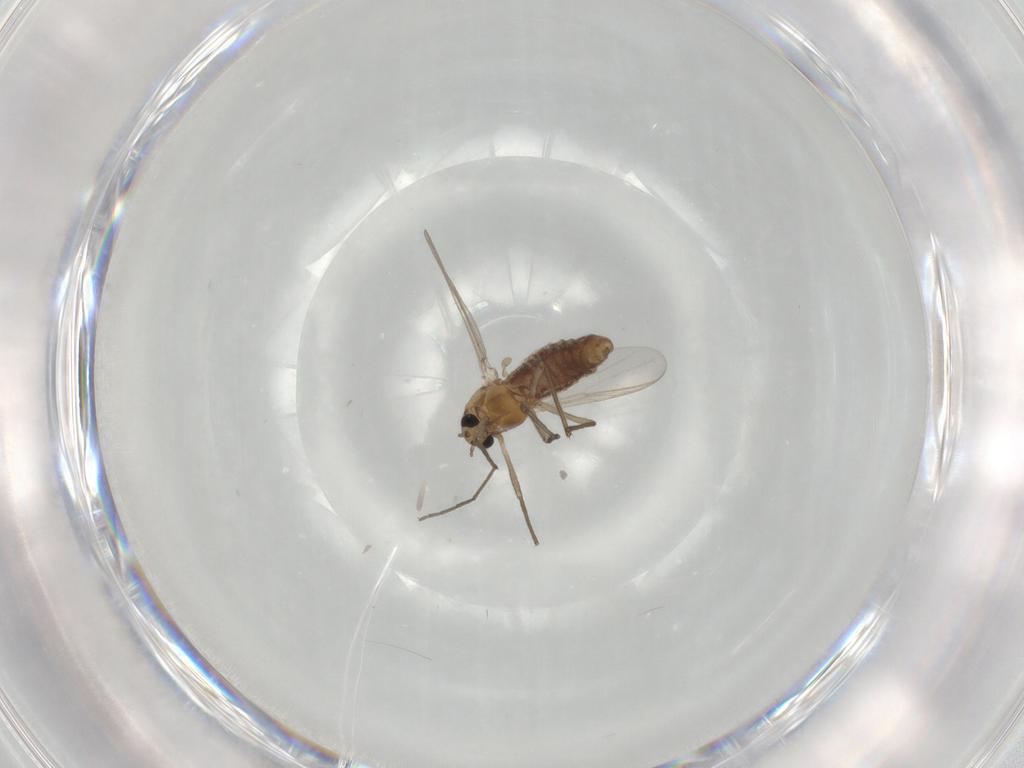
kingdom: Animalia
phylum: Arthropoda
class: Insecta
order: Diptera
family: Chironomidae
